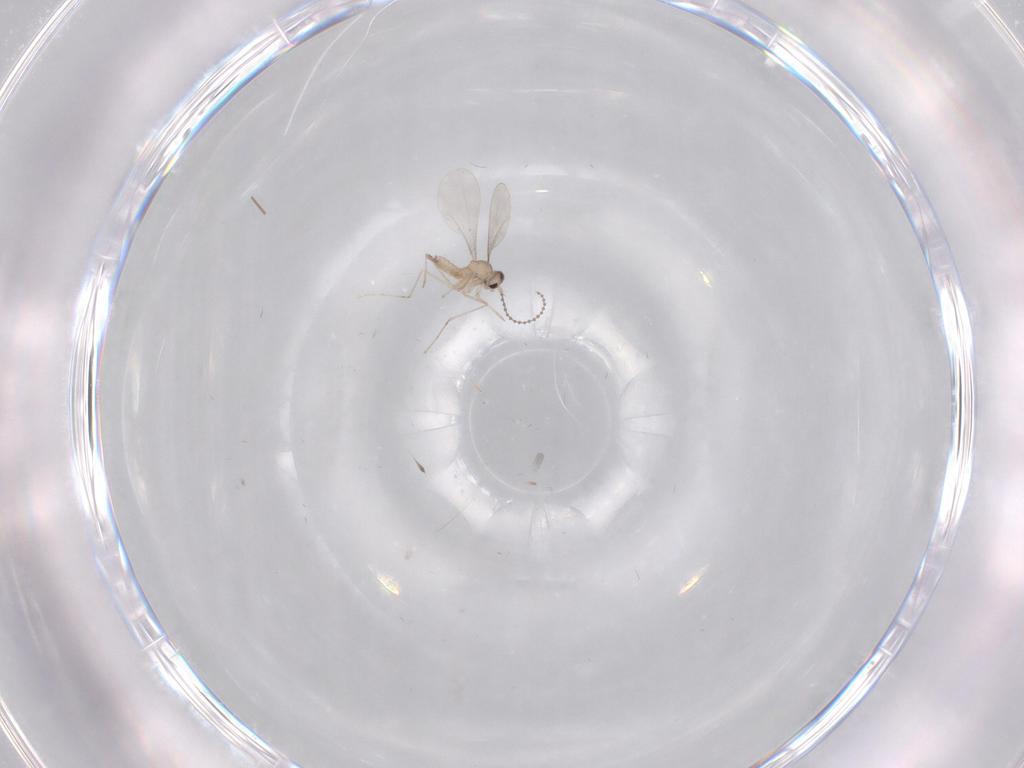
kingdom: Animalia
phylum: Arthropoda
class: Insecta
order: Diptera
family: Cecidomyiidae
